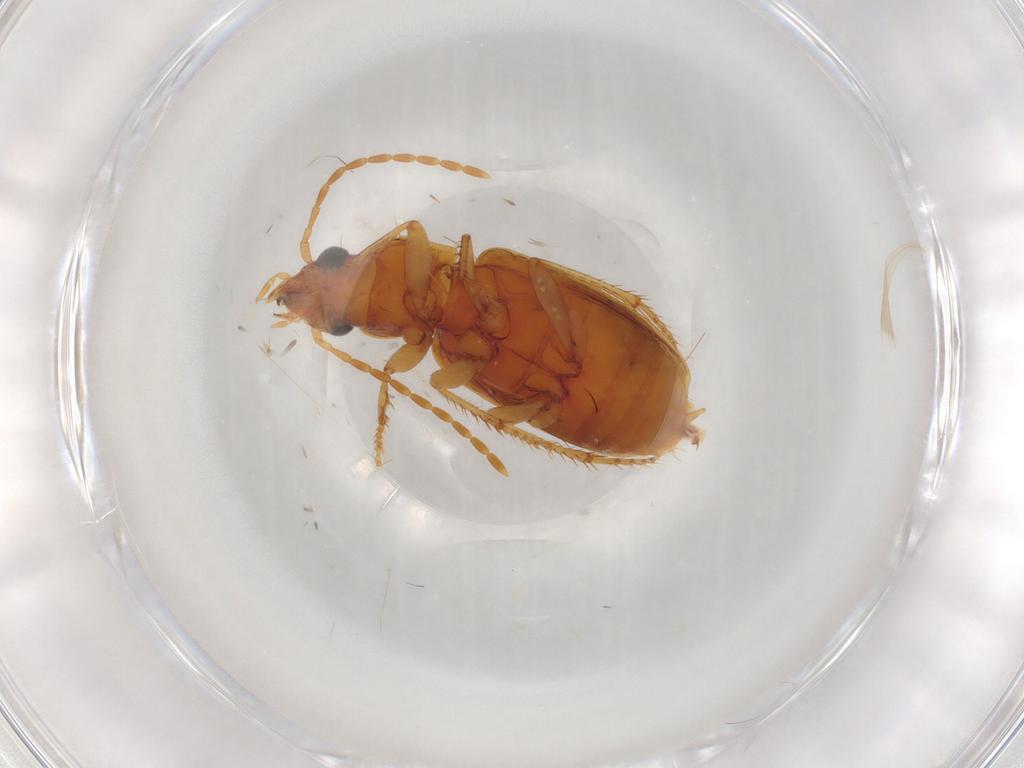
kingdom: Animalia
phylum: Arthropoda
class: Insecta
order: Coleoptera
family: Carabidae
